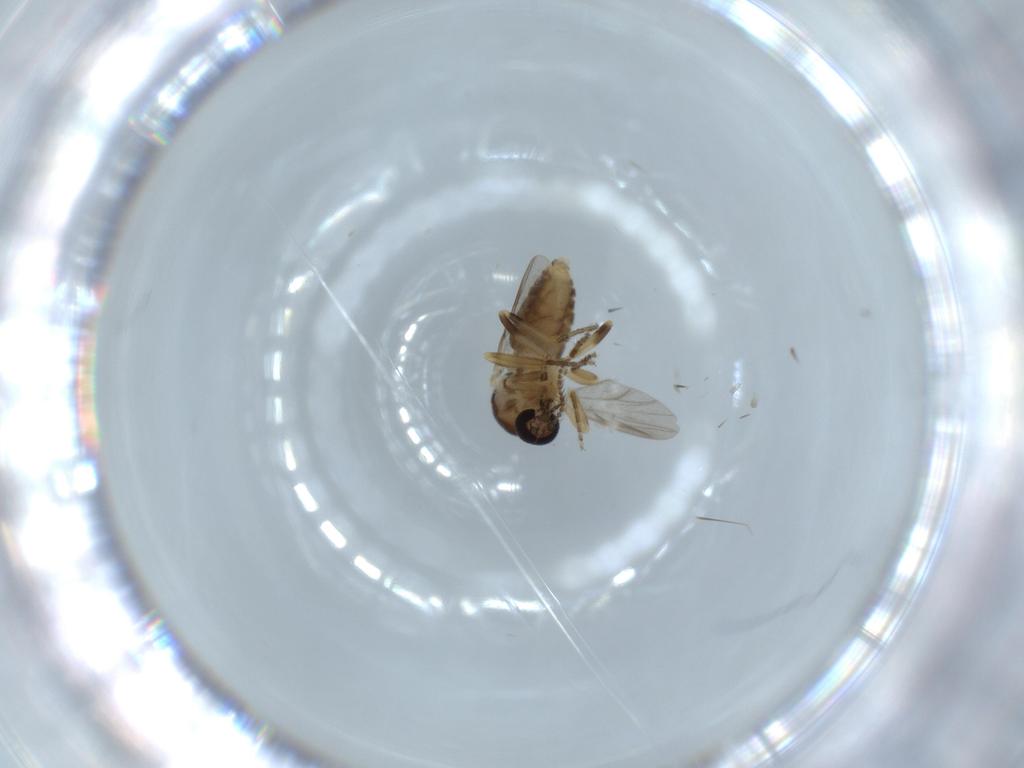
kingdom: Animalia
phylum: Arthropoda
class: Insecta
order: Diptera
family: Ceratopogonidae
